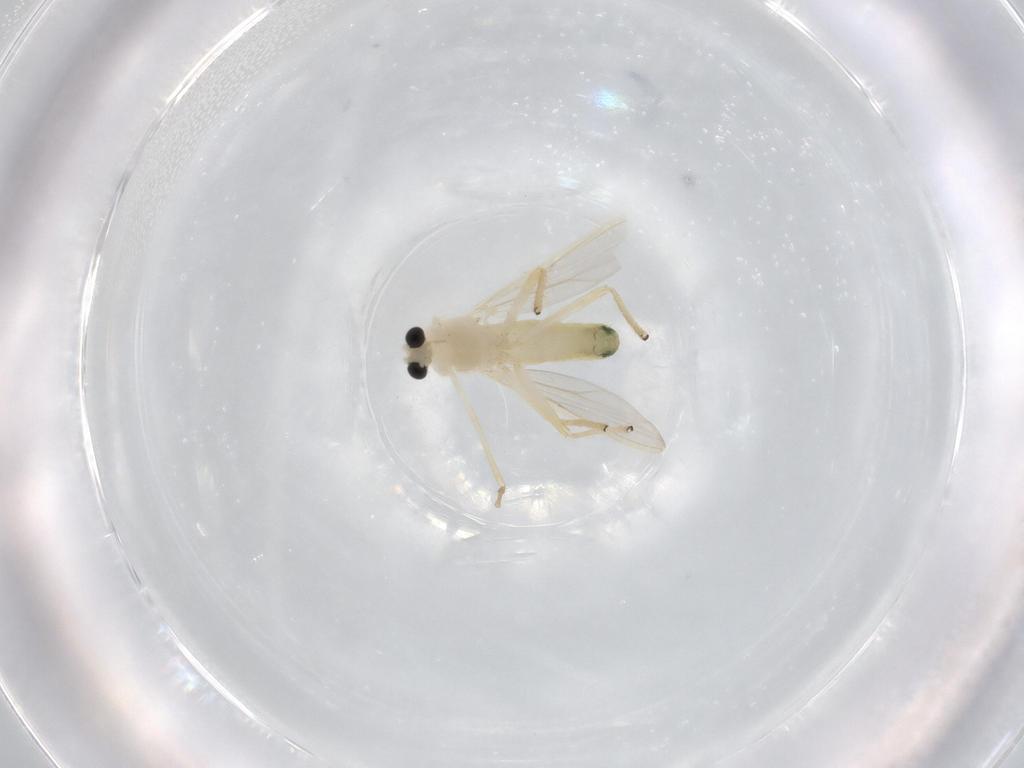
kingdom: Animalia
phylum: Arthropoda
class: Insecta
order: Diptera
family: Chironomidae
